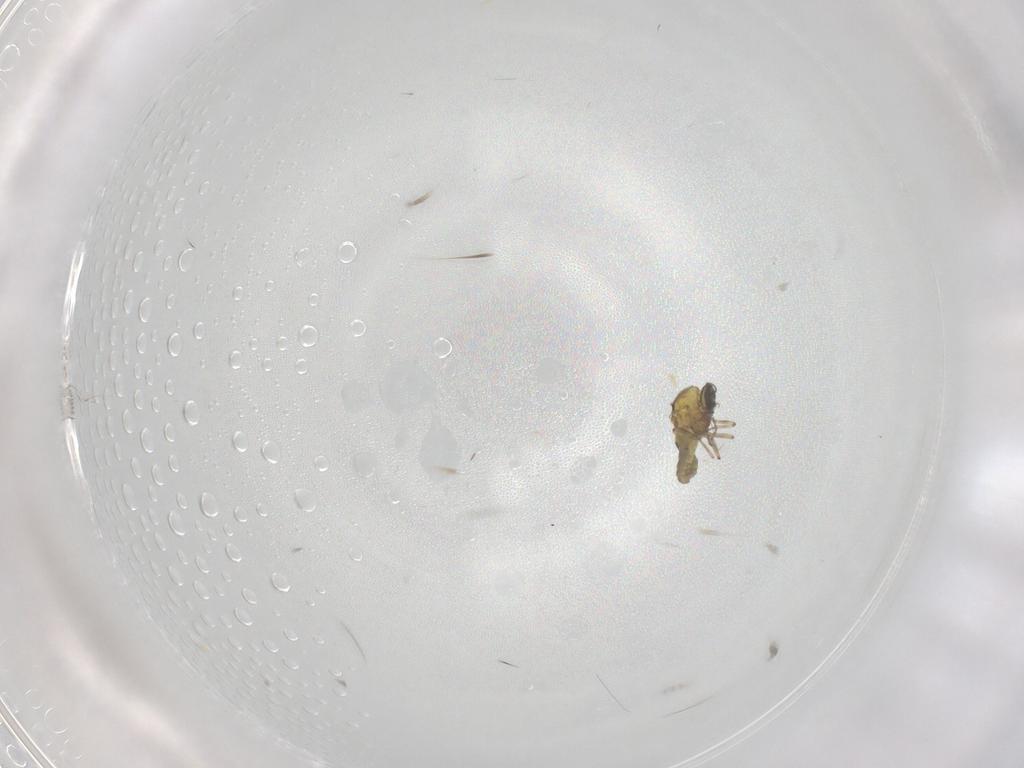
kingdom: Animalia
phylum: Arthropoda
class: Insecta
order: Diptera
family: Ceratopogonidae
